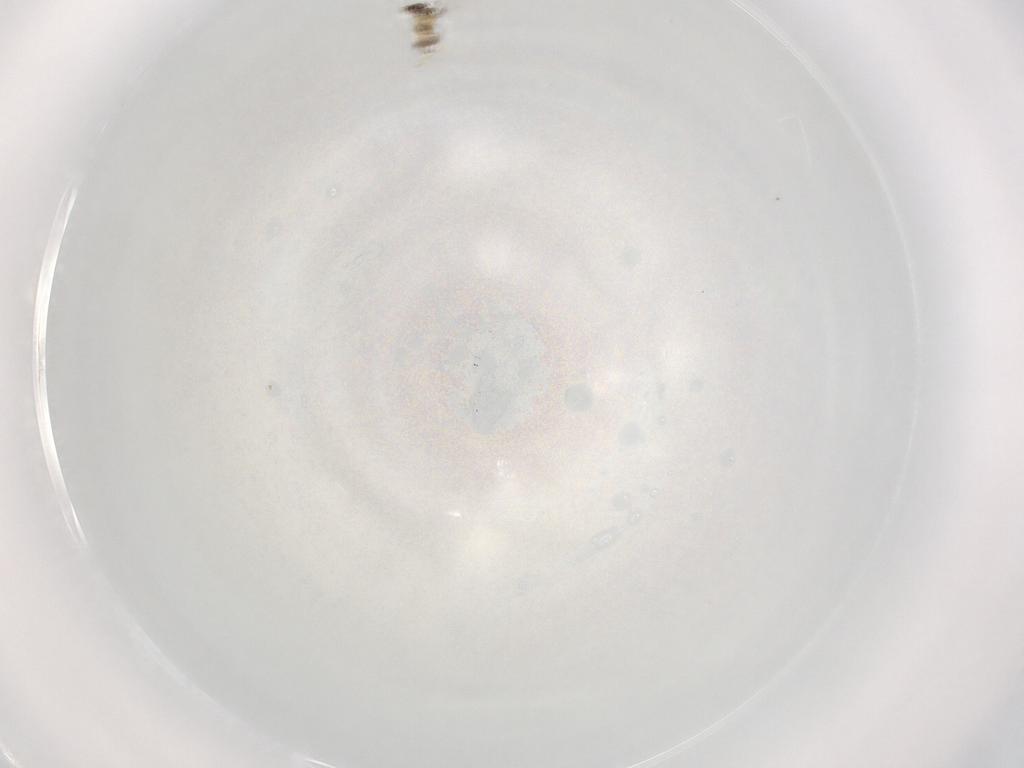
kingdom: Animalia
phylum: Arthropoda
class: Insecta
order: Hymenoptera
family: Mymaridae
